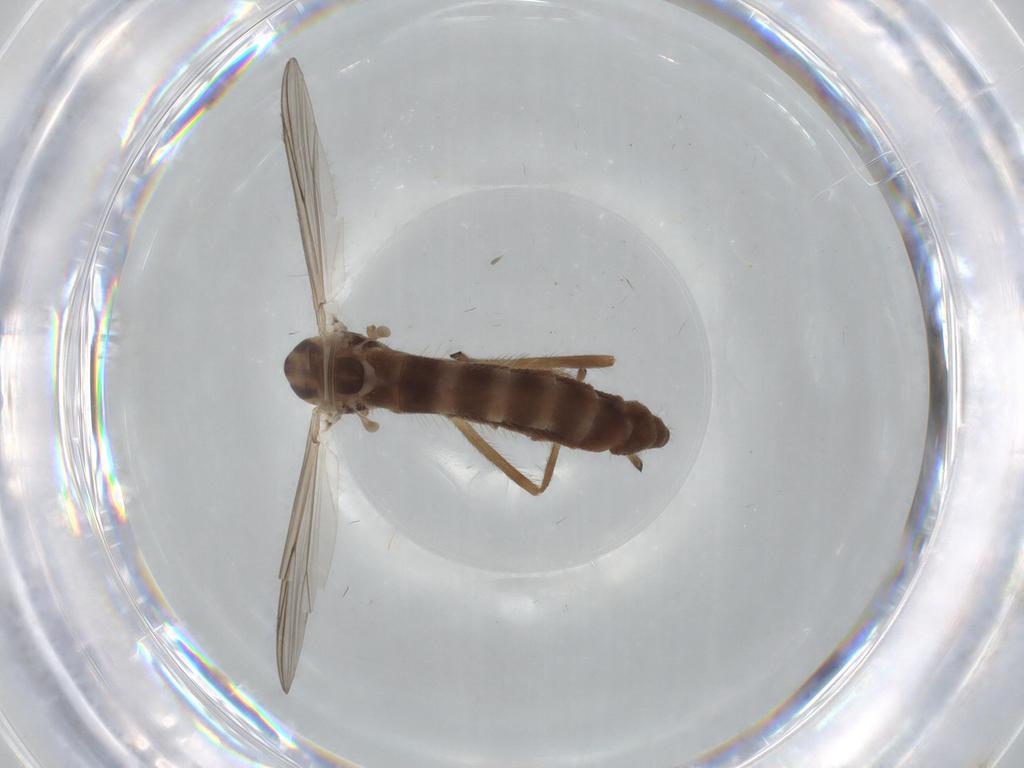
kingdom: Animalia
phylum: Arthropoda
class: Insecta
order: Diptera
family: Chironomidae
